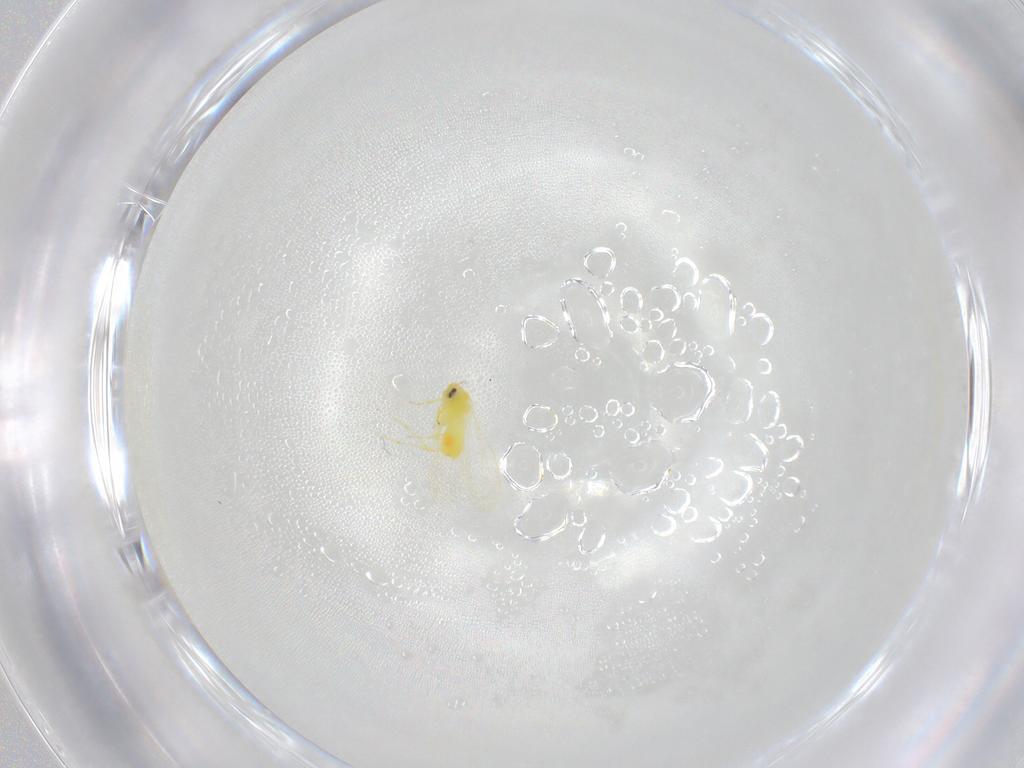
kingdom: Animalia
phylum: Arthropoda
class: Insecta
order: Hemiptera
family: Aleyrodidae
